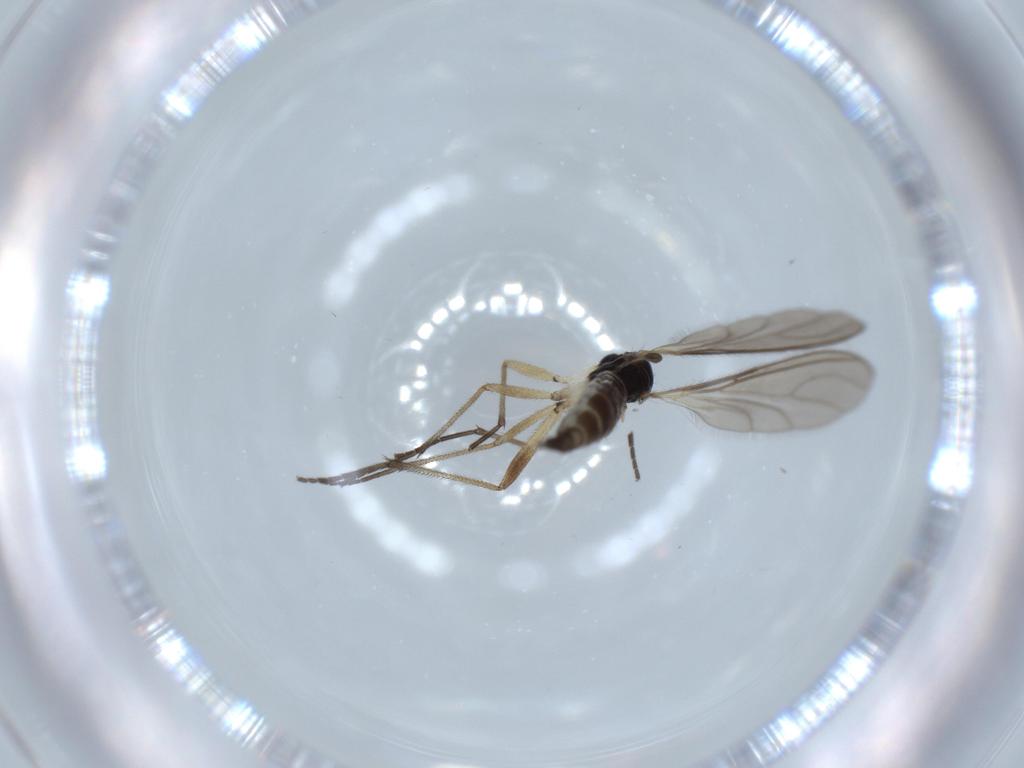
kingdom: Animalia
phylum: Arthropoda
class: Insecta
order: Diptera
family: Sciaridae
